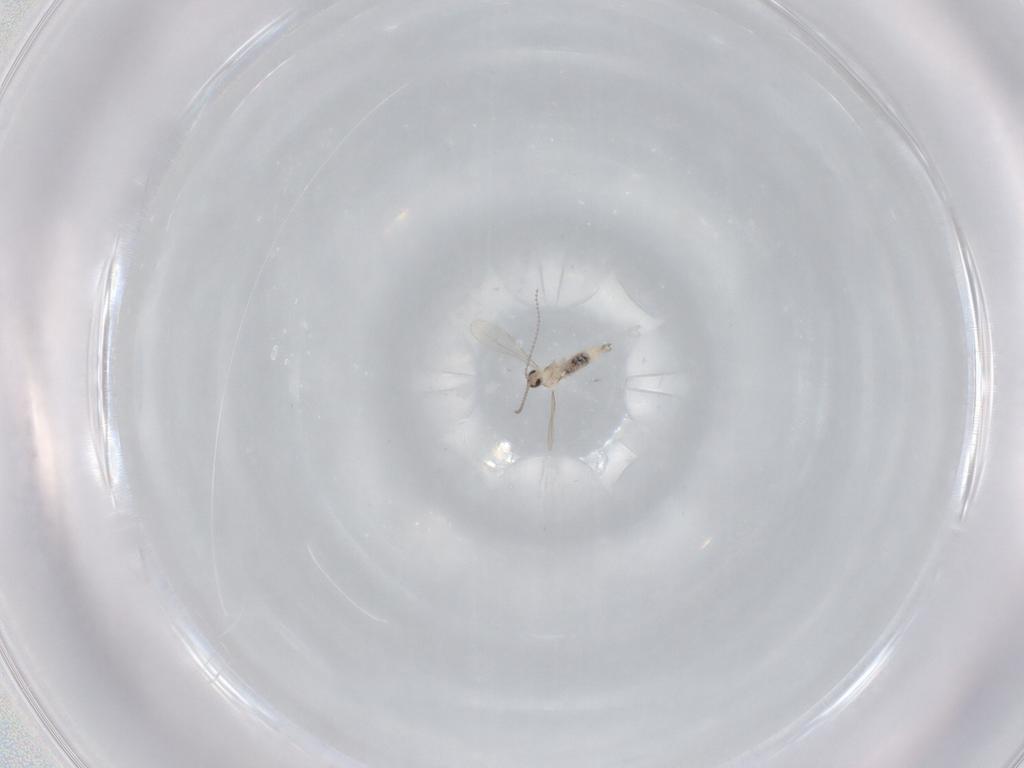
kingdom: Animalia
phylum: Arthropoda
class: Insecta
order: Diptera
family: Sciaridae
